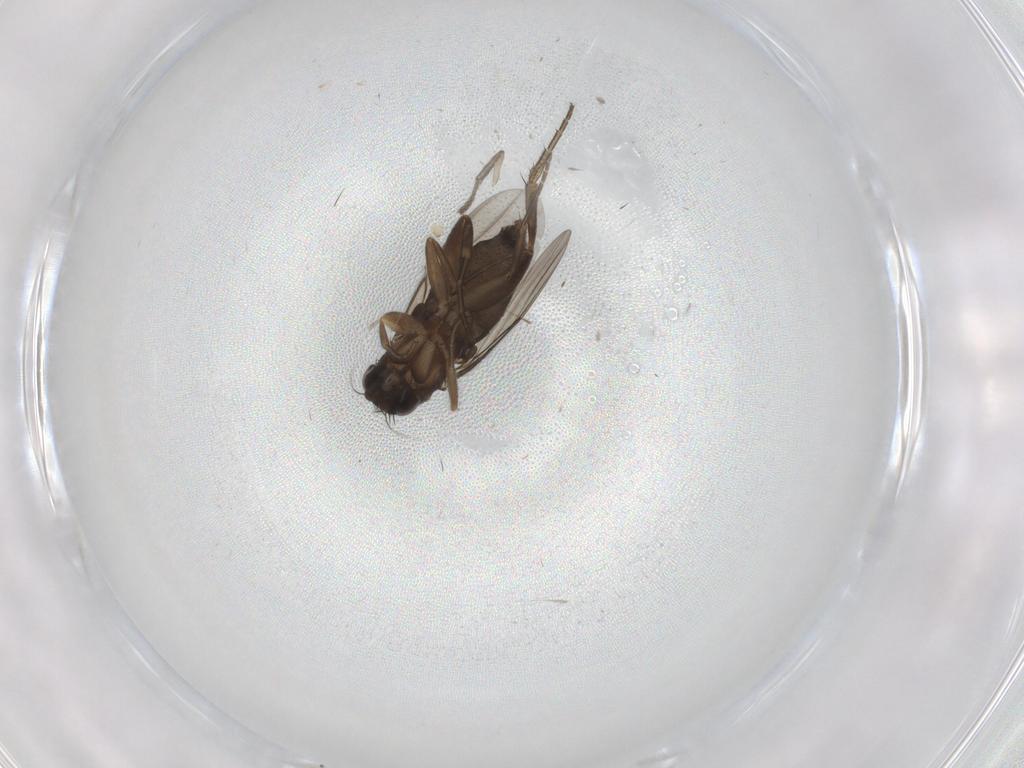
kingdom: Animalia
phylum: Arthropoda
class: Insecta
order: Diptera
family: Phoridae
